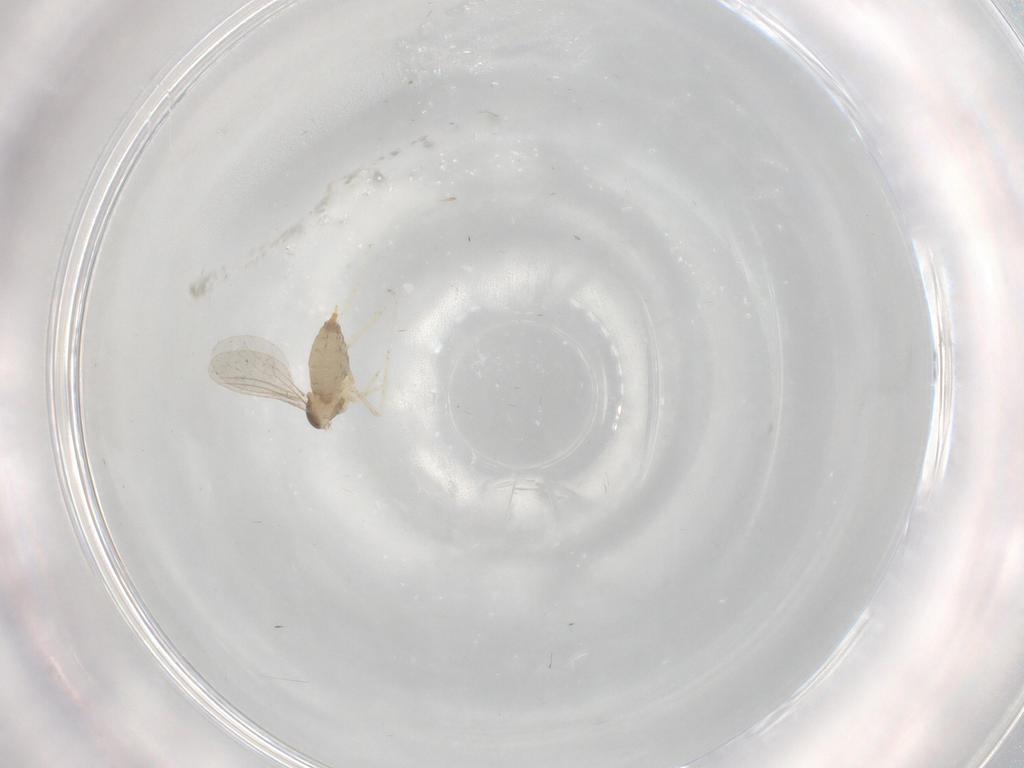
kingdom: Animalia
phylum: Arthropoda
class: Insecta
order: Diptera
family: Cecidomyiidae
